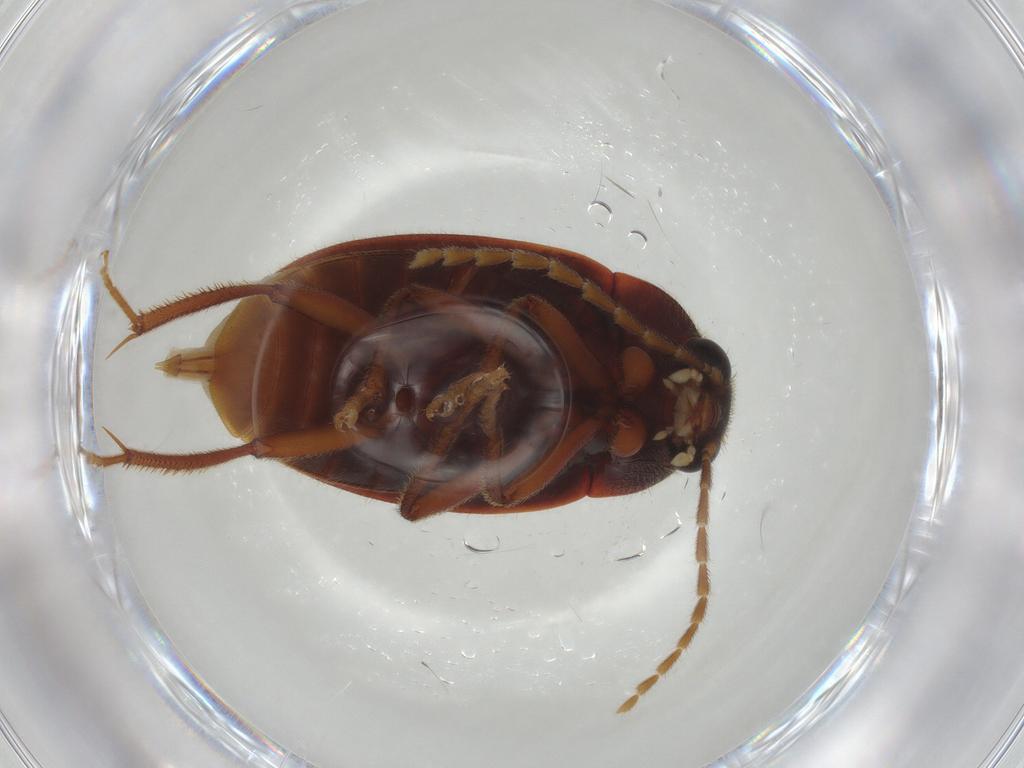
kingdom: Animalia
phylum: Arthropoda
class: Insecta
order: Coleoptera
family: Ptilodactylidae
